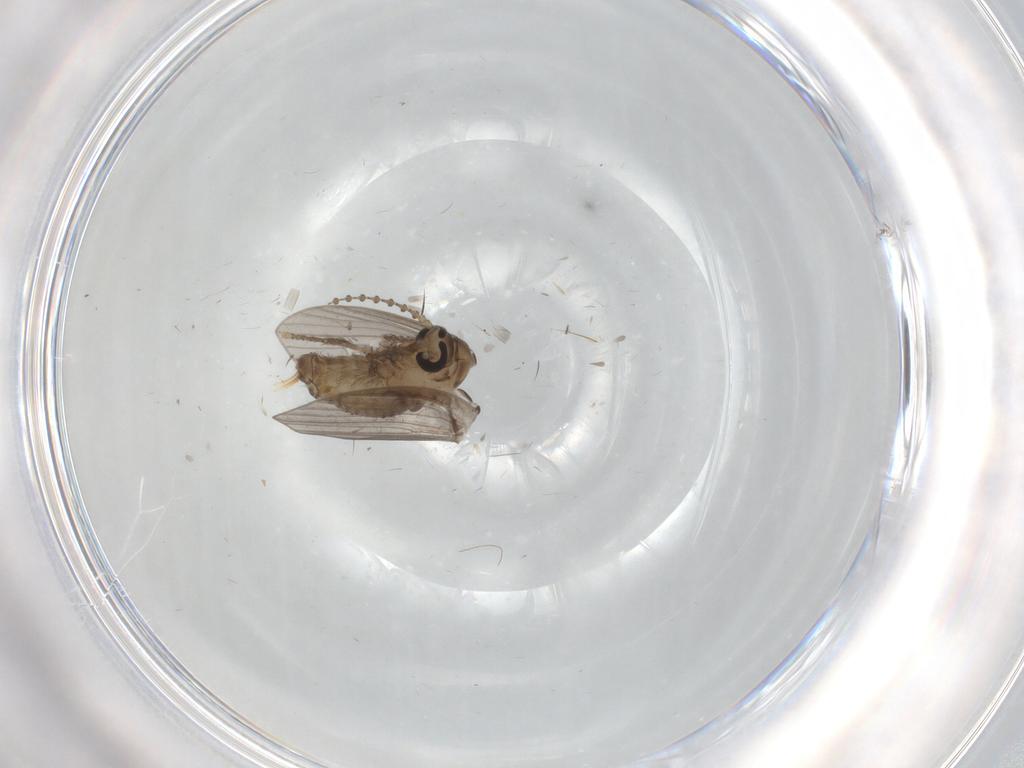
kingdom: Animalia
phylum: Arthropoda
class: Insecta
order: Diptera
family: Psychodidae
